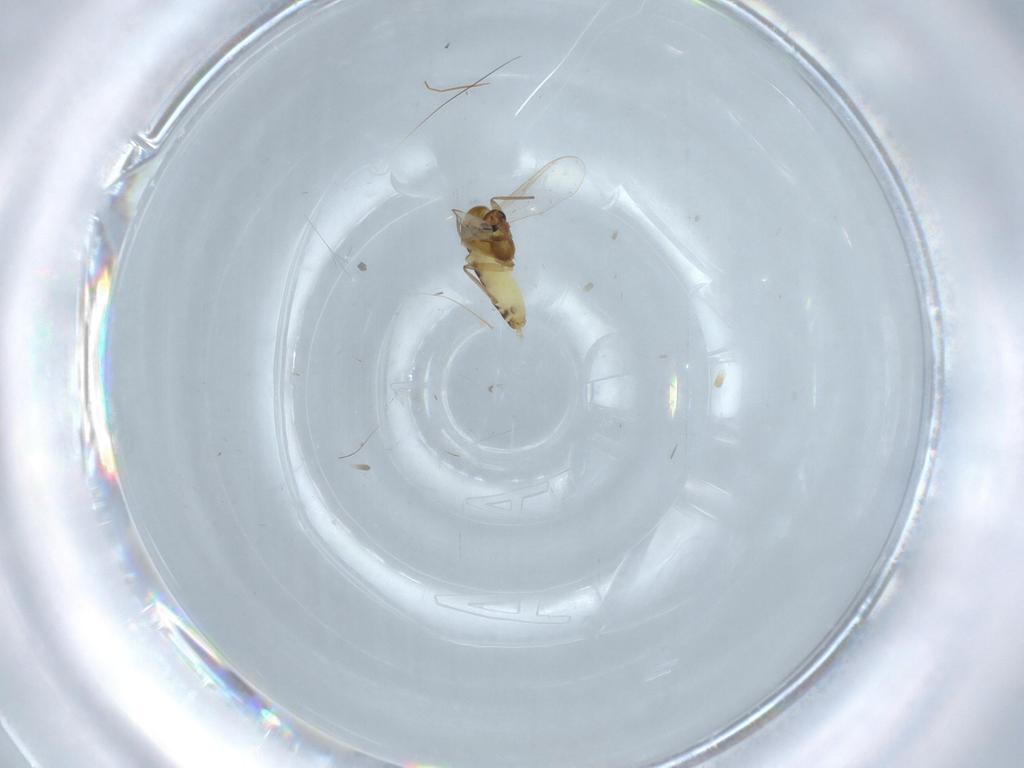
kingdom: Animalia
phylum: Arthropoda
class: Insecta
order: Diptera
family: Chironomidae
